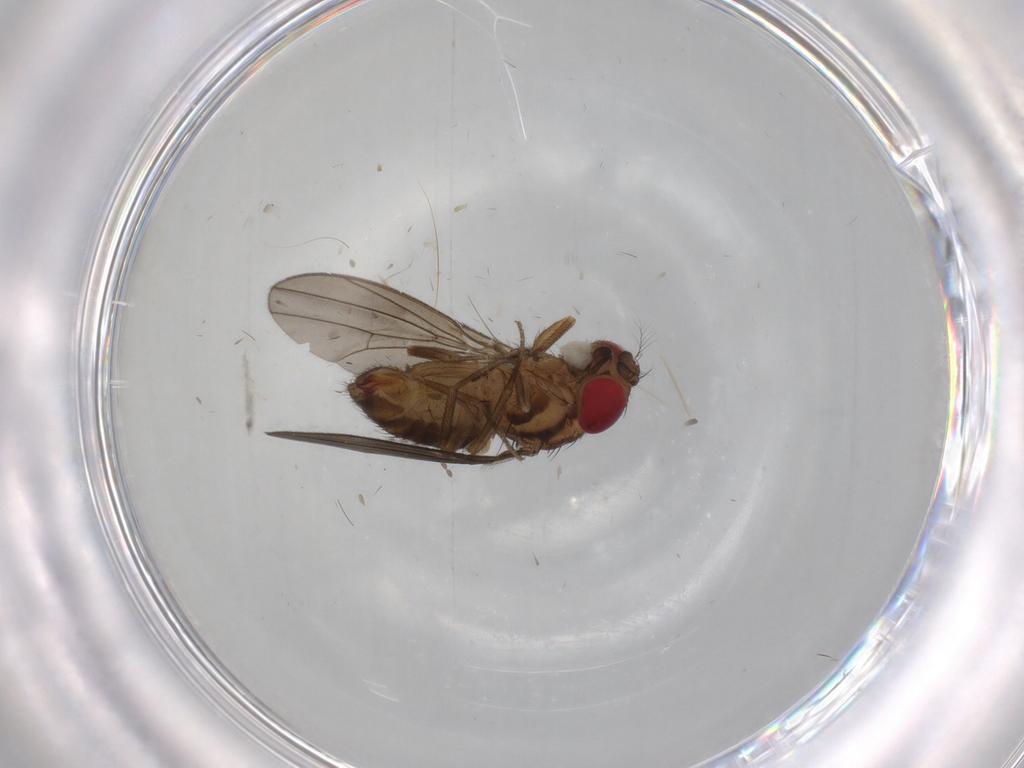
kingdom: Animalia
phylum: Arthropoda
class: Insecta
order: Diptera
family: Drosophilidae
